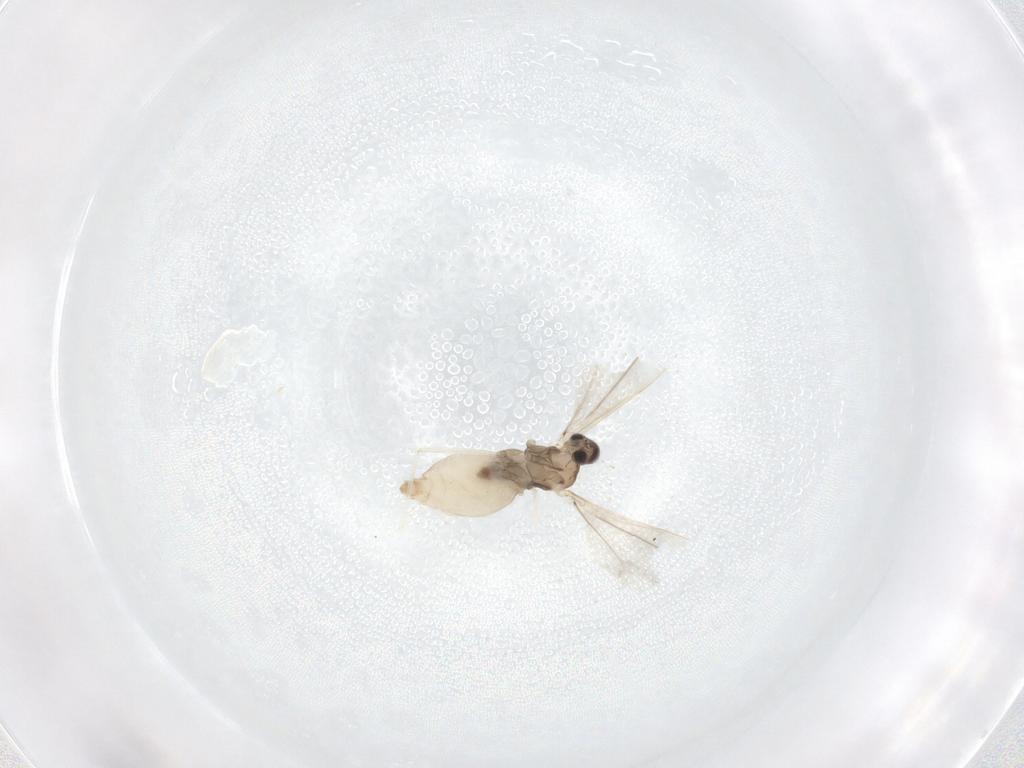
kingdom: Animalia
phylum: Arthropoda
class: Insecta
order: Diptera
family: Cecidomyiidae
